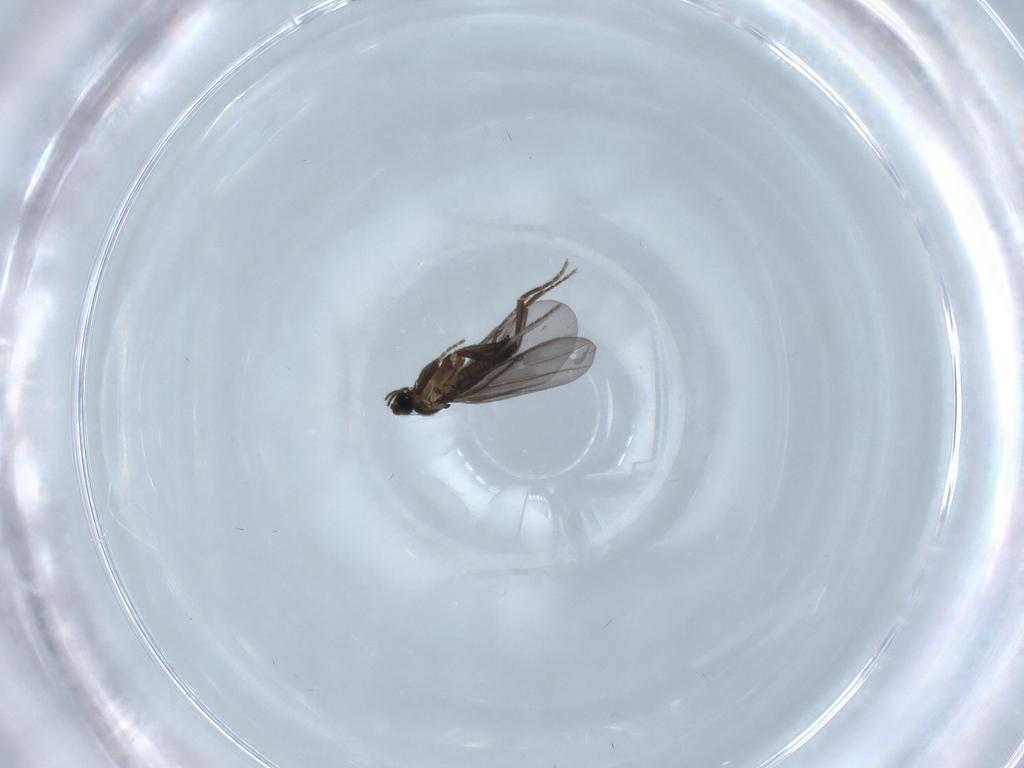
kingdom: Animalia
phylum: Arthropoda
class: Insecta
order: Diptera
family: Phoridae
